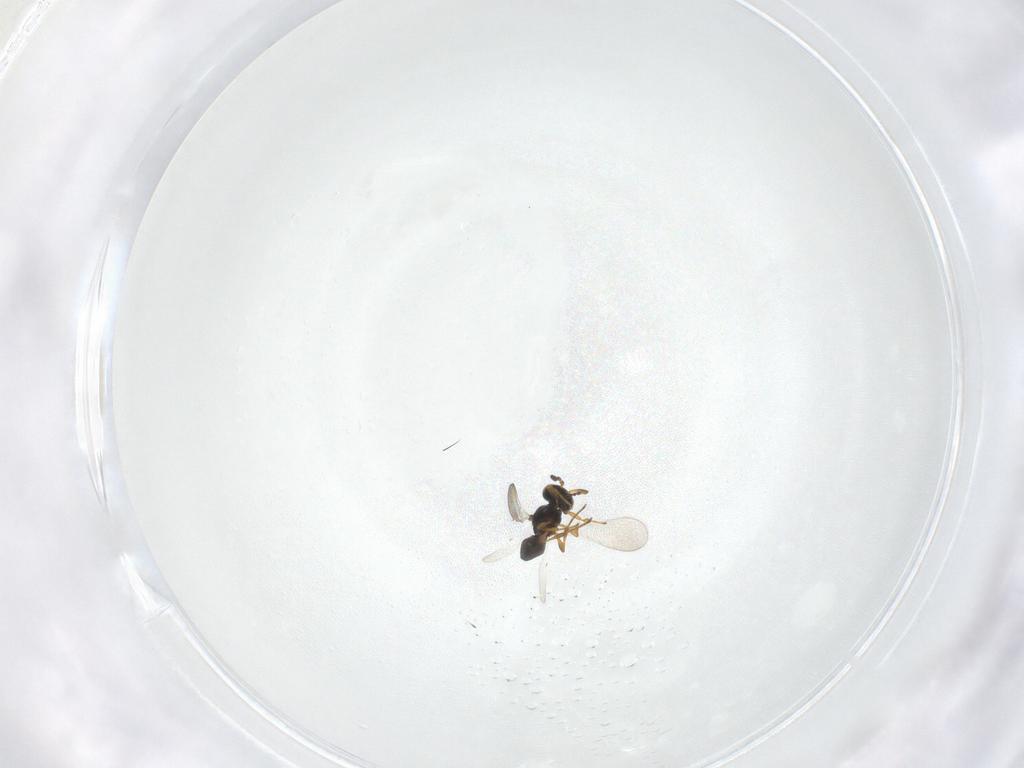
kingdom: Animalia
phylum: Arthropoda
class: Insecta
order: Hymenoptera
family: Platygastridae
